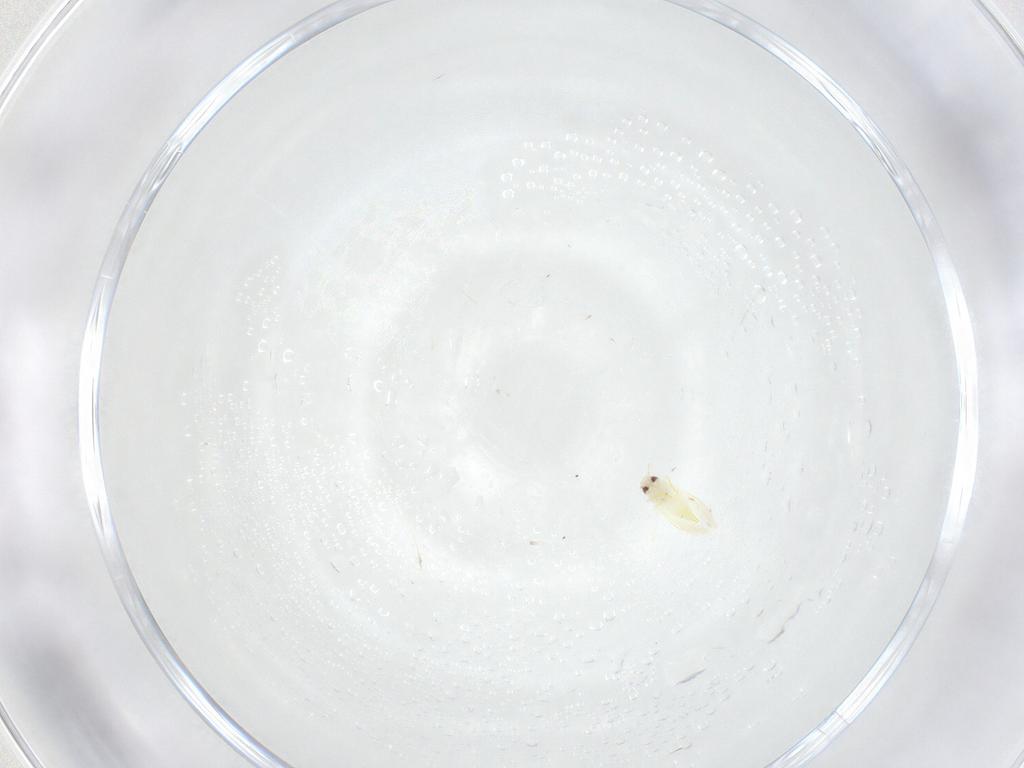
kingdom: Animalia
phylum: Arthropoda
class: Insecta
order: Hemiptera
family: Aleyrodidae
